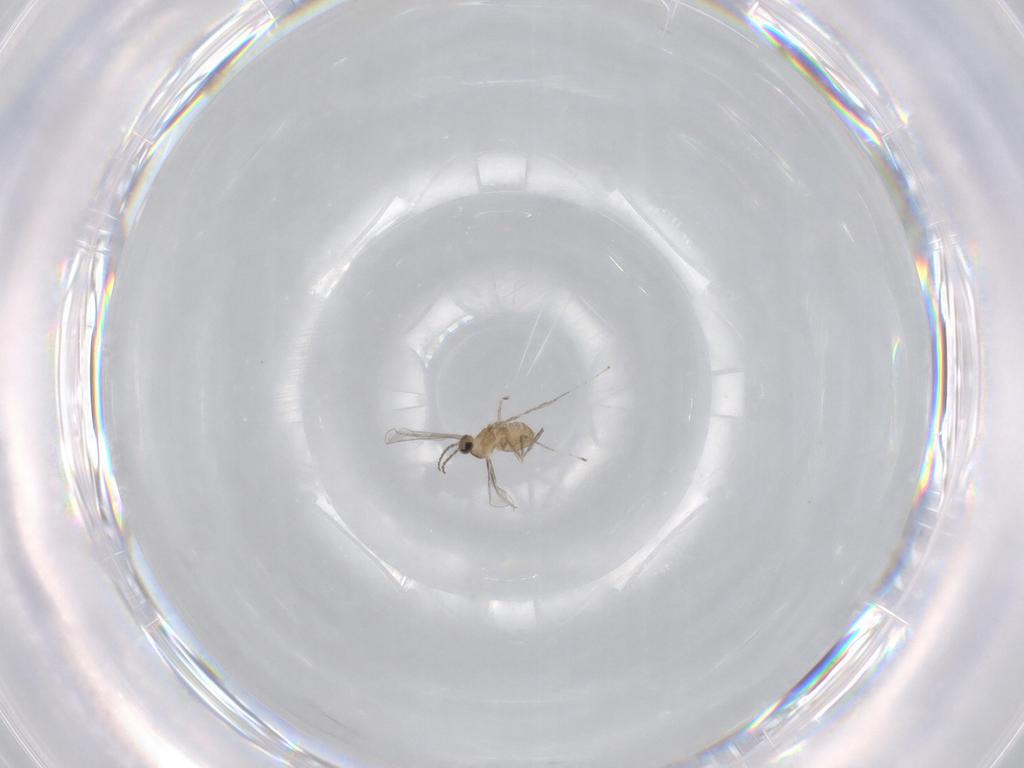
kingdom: Animalia
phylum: Arthropoda
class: Insecta
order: Diptera
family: Cecidomyiidae
